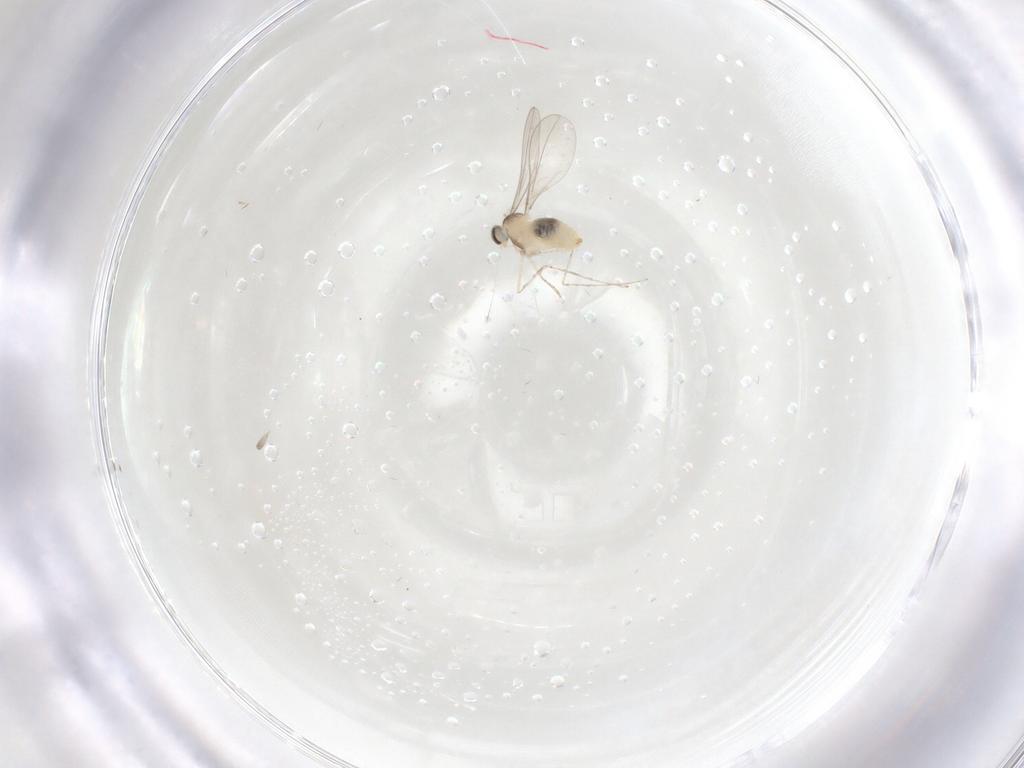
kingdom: Animalia
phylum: Arthropoda
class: Insecta
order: Diptera
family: Cecidomyiidae
